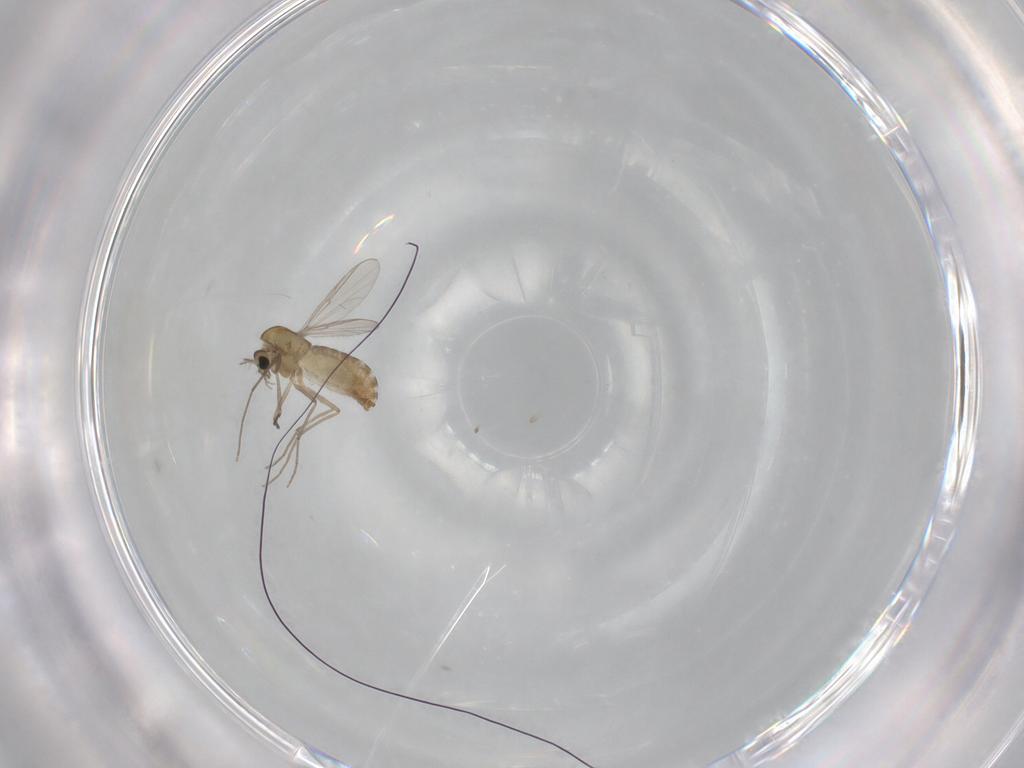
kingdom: Animalia
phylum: Arthropoda
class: Insecta
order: Diptera
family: Chironomidae
